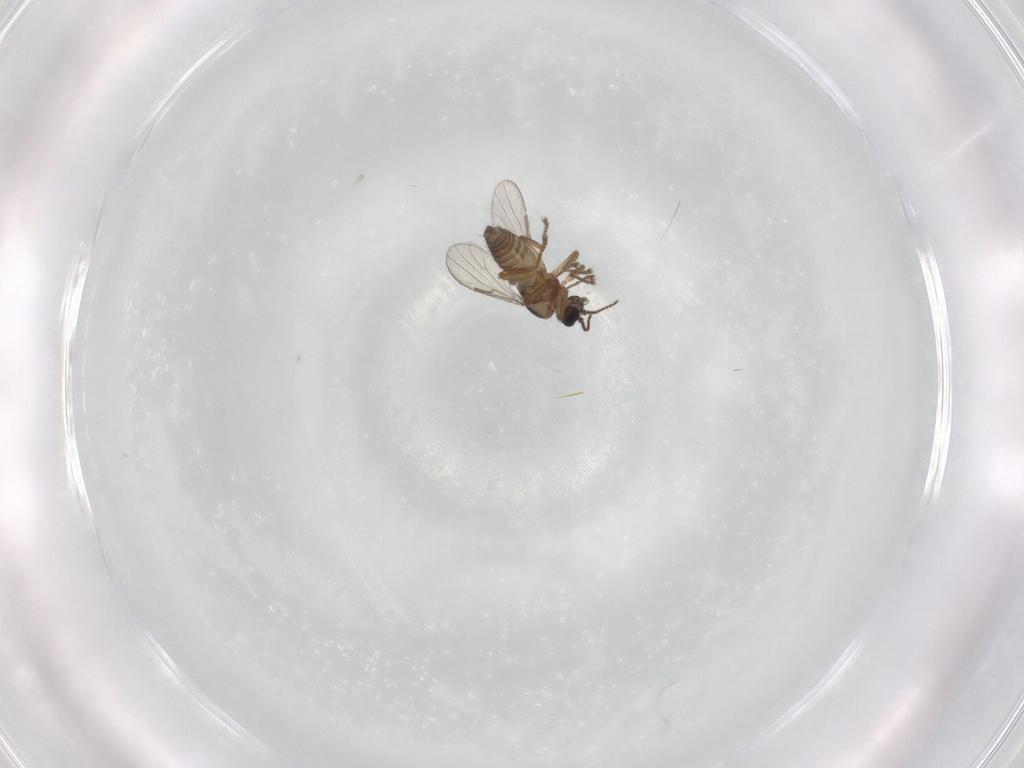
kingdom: Animalia
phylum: Arthropoda
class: Insecta
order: Diptera
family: Ceratopogonidae
